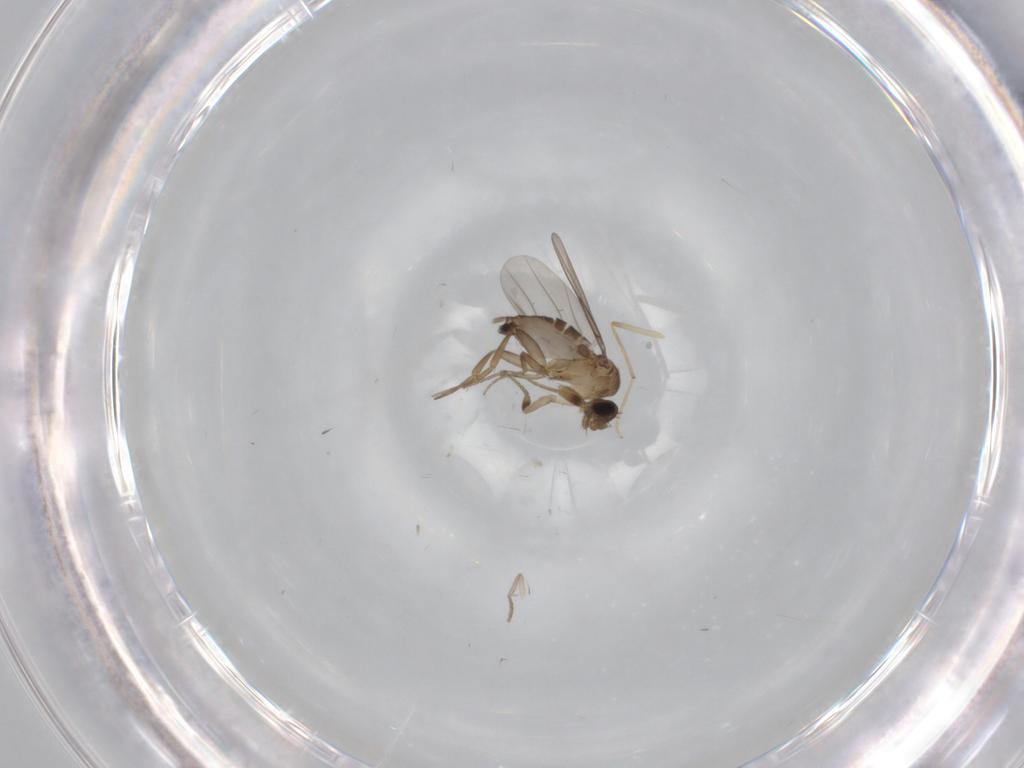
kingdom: Animalia
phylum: Arthropoda
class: Insecta
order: Diptera
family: Phoridae
